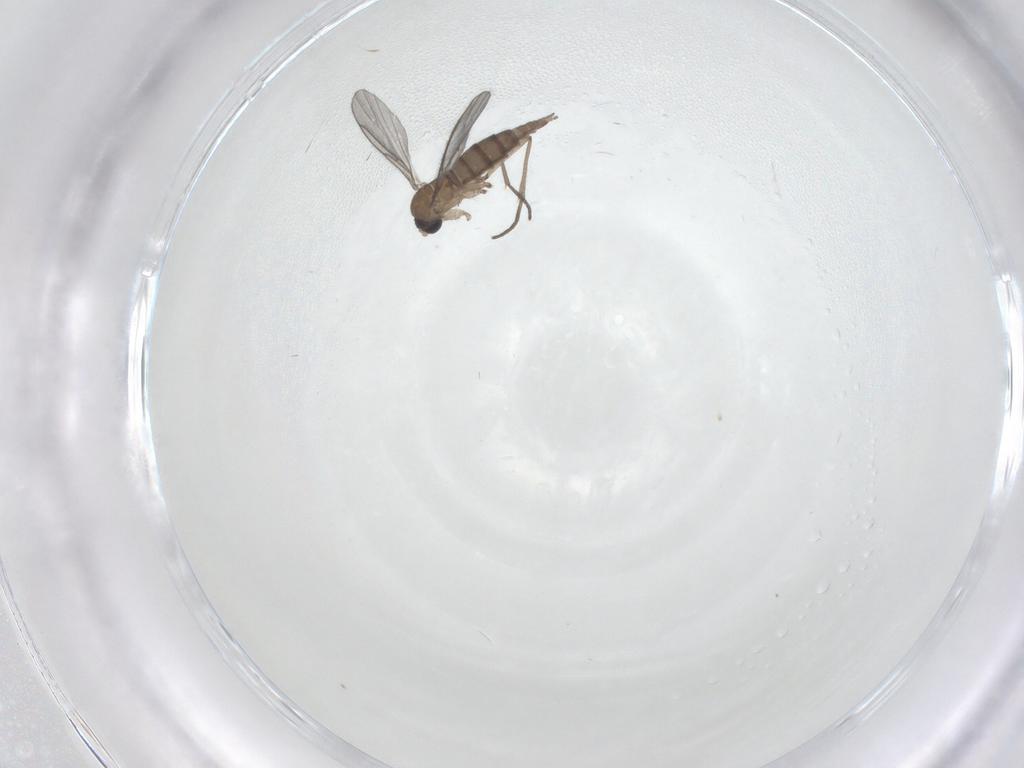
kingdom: Animalia
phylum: Arthropoda
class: Insecta
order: Diptera
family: Sciaridae
